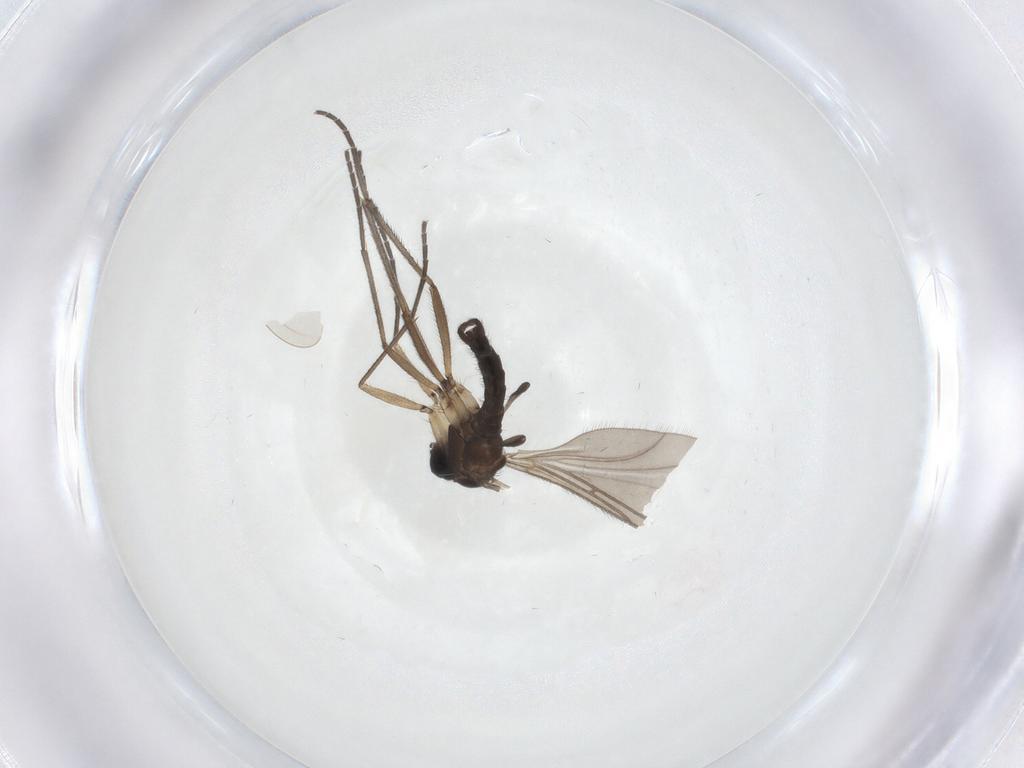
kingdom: Animalia
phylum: Arthropoda
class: Insecta
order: Diptera
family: Sciaridae
